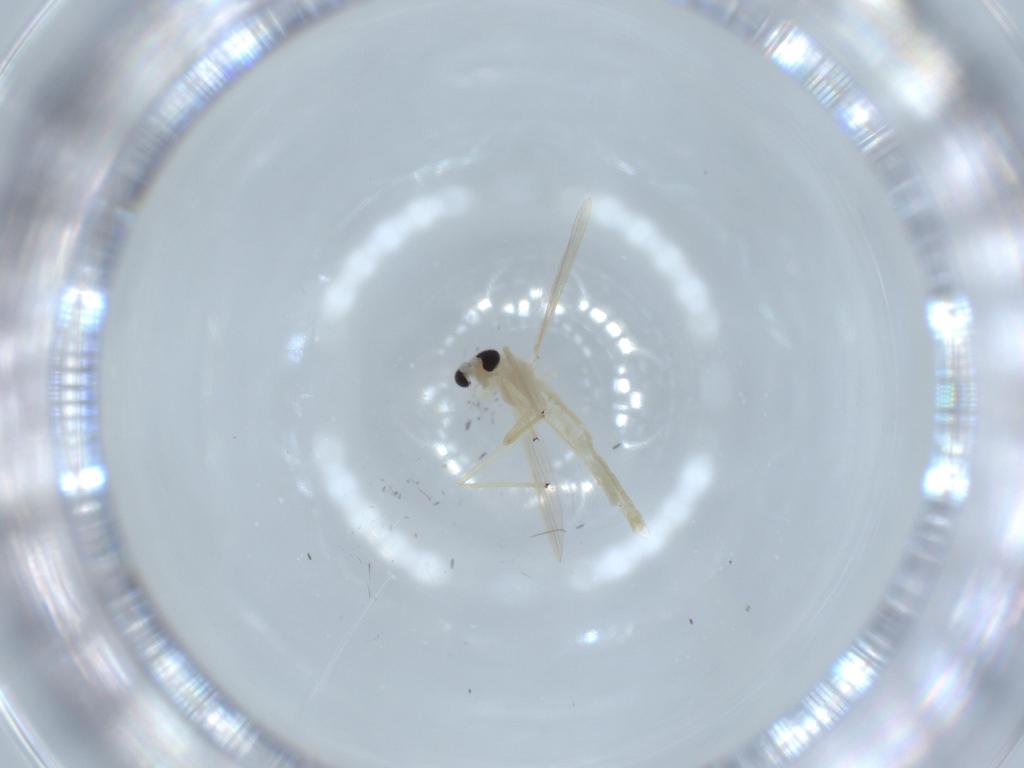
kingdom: Animalia
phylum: Arthropoda
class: Insecta
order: Diptera
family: Chironomidae
